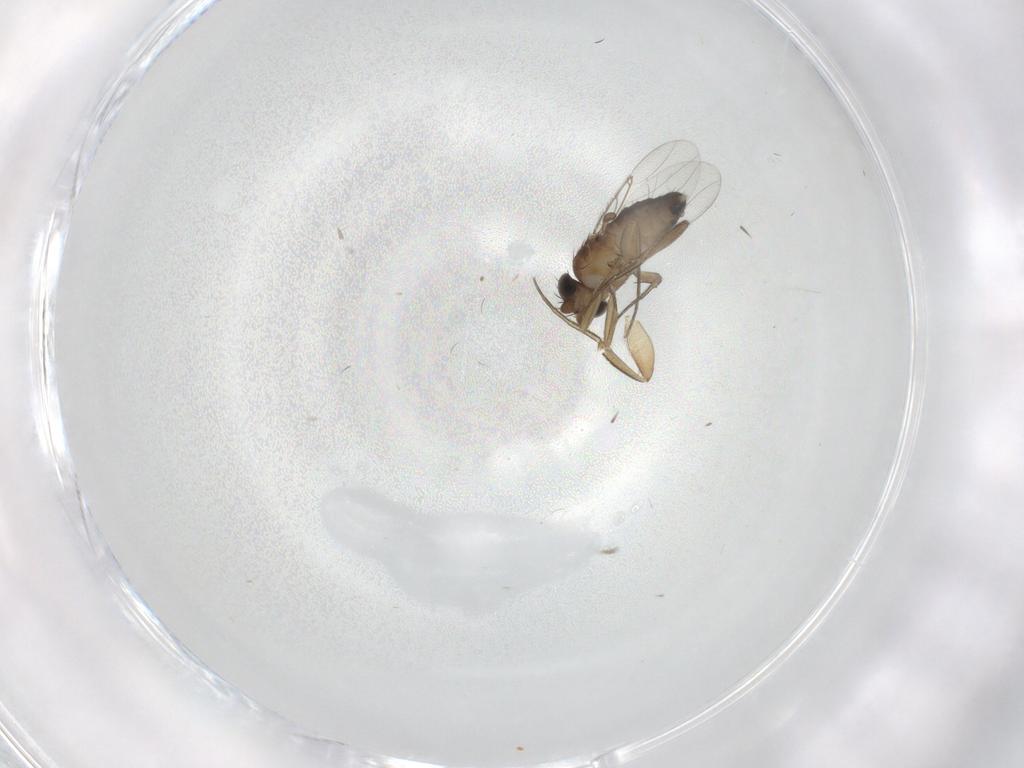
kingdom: Animalia
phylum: Arthropoda
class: Insecta
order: Diptera
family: Phoridae
